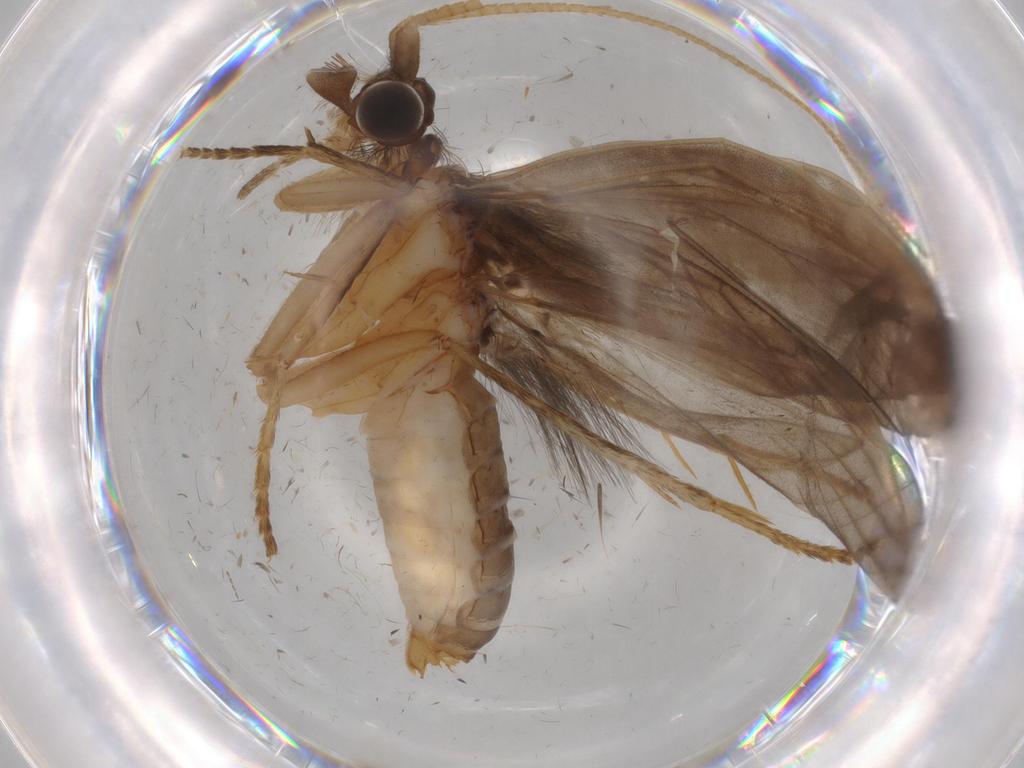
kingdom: Animalia
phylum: Arthropoda
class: Insecta
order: Trichoptera
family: Lepidostomatidae
